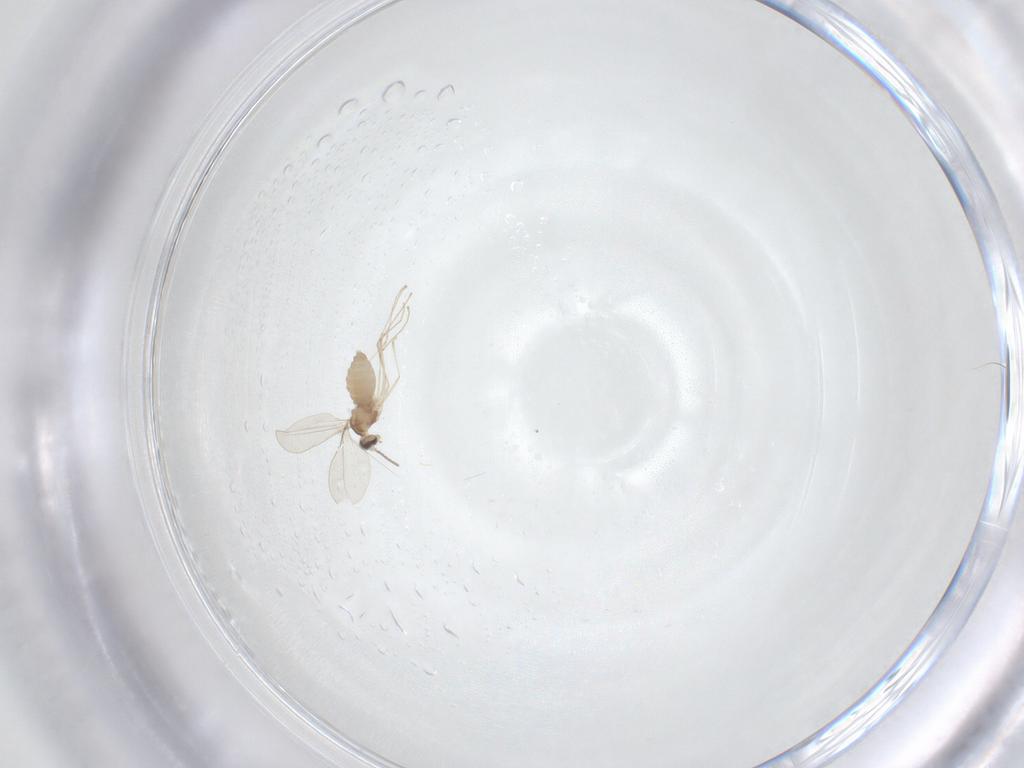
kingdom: Animalia
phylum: Arthropoda
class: Insecta
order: Diptera
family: Cecidomyiidae
